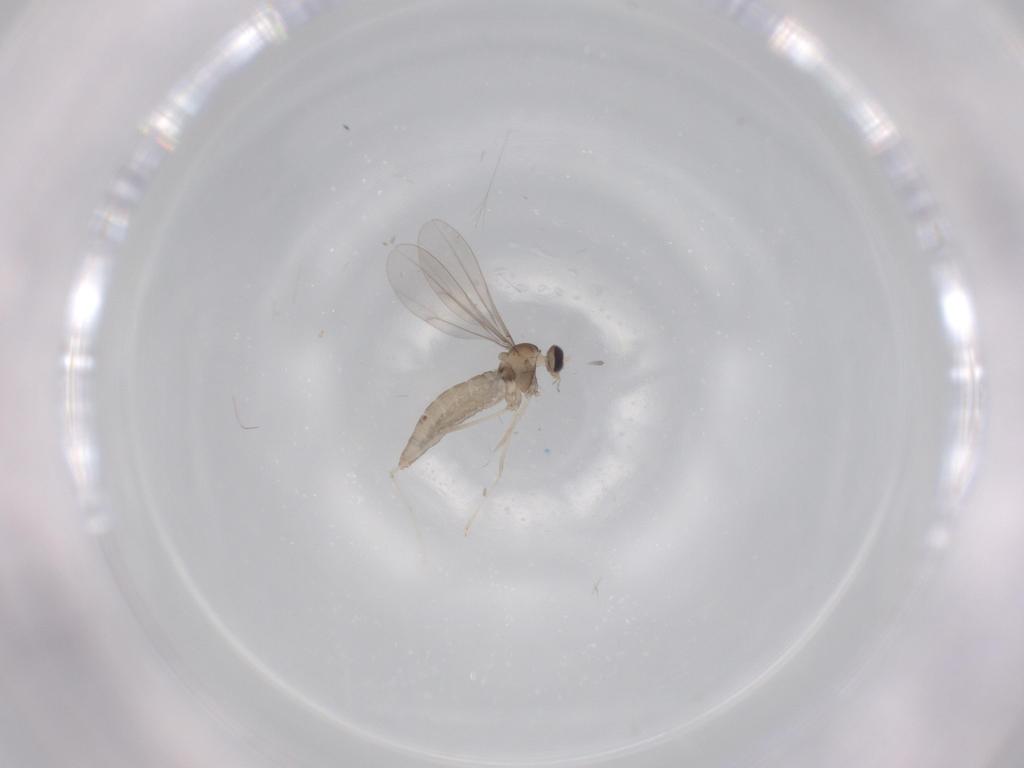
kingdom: Animalia
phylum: Arthropoda
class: Insecta
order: Diptera
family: Cecidomyiidae
